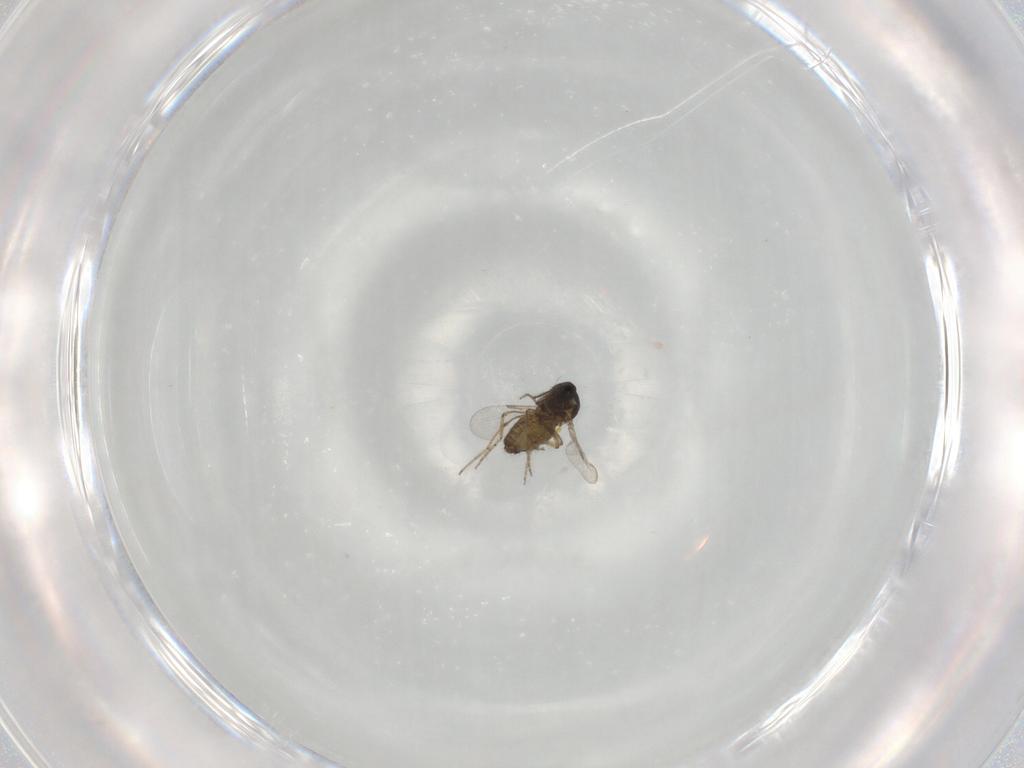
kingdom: Animalia
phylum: Arthropoda
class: Insecta
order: Diptera
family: Ceratopogonidae
